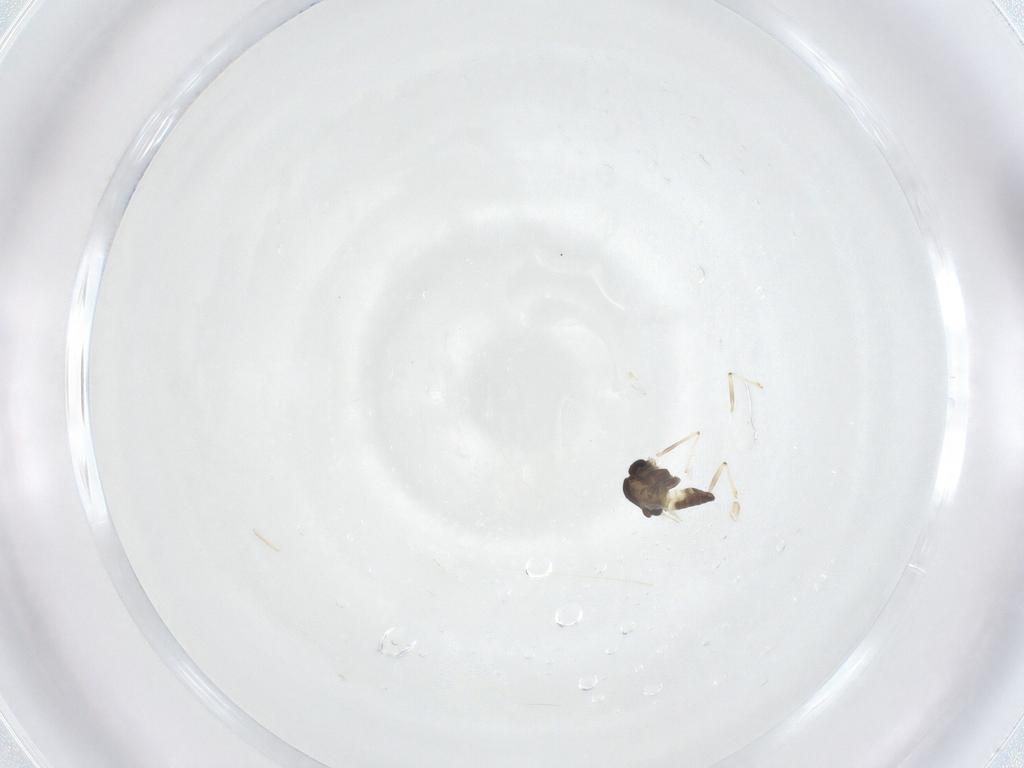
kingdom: Animalia
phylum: Arthropoda
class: Insecta
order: Diptera
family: Chironomidae
